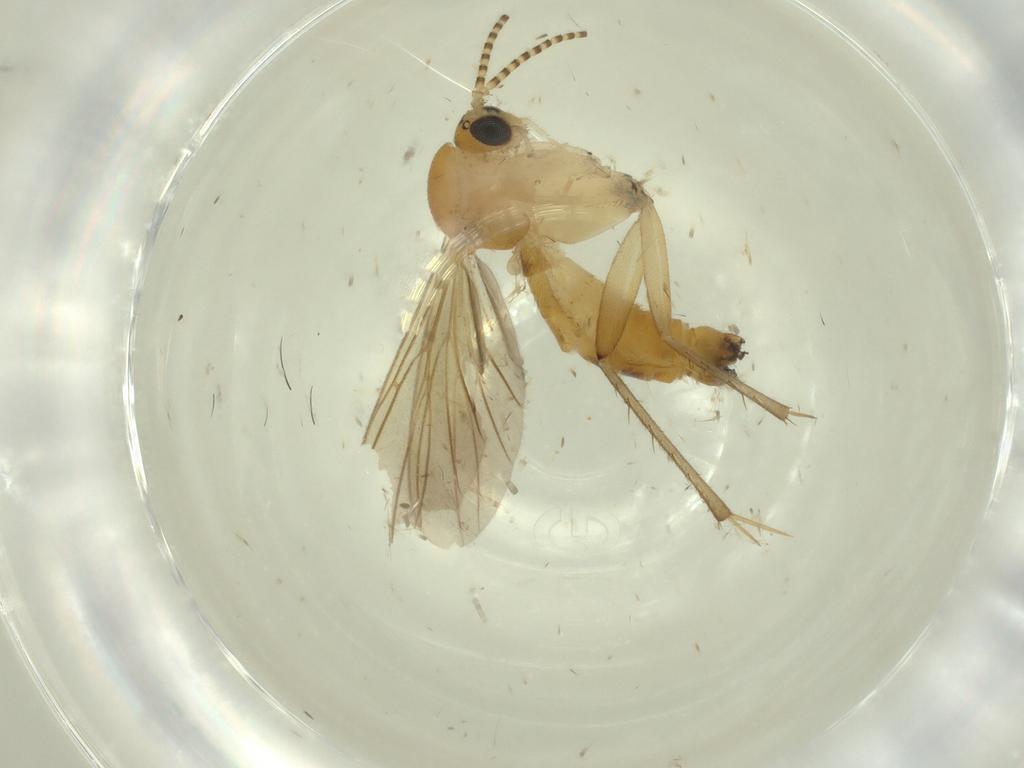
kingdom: Animalia
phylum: Arthropoda
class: Insecta
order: Diptera
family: Mycetophilidae
